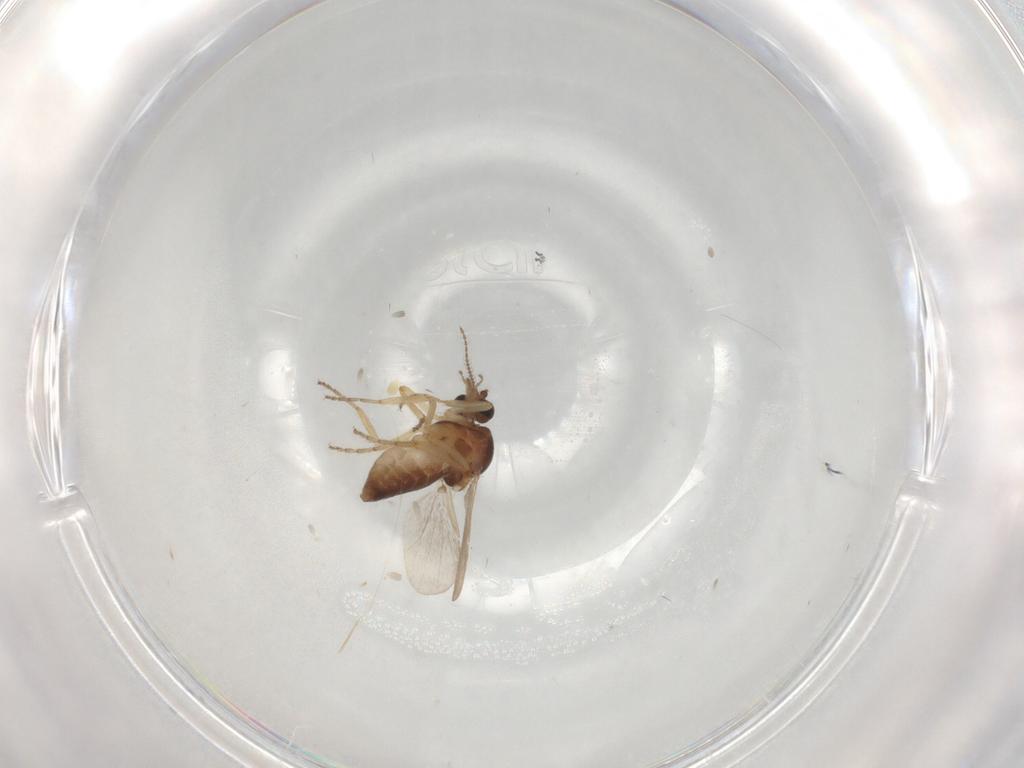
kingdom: Animalia
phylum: Arthropoda
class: Insecta
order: Diptera
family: Ceratopogonidae
